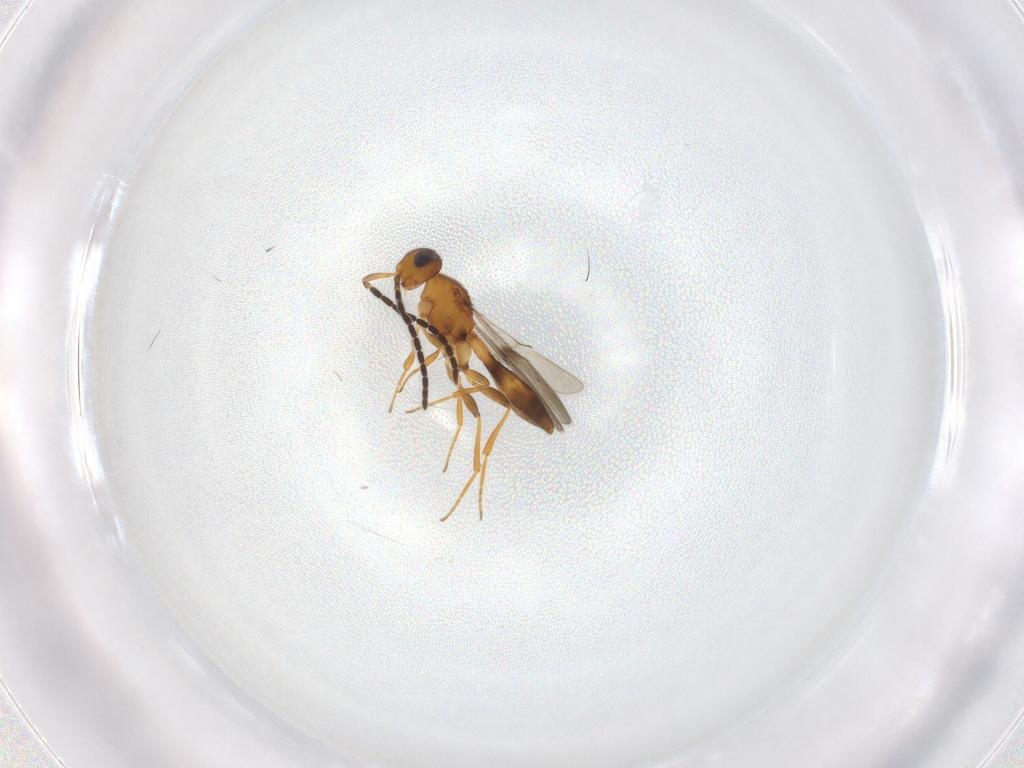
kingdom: Animalia
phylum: Arthropoda
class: Insecta
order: Hymenoptera
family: Scelionidae
